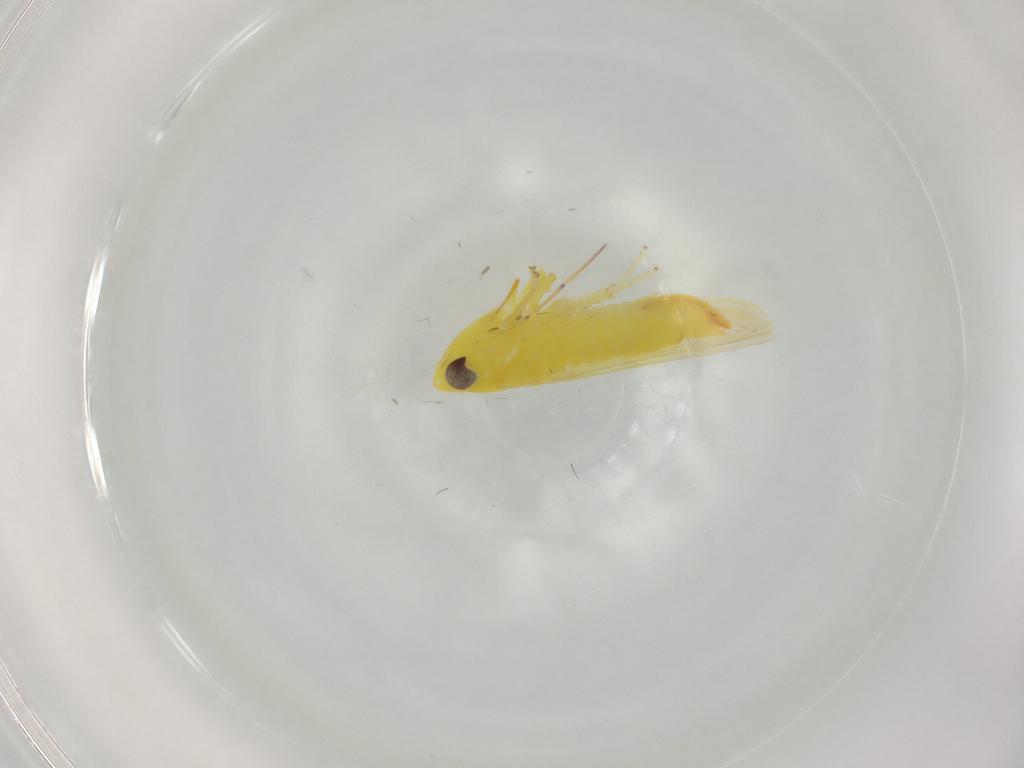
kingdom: Animalia
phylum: Arthropoda
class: Insecta
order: Hemiptera
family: Cicadellidae
